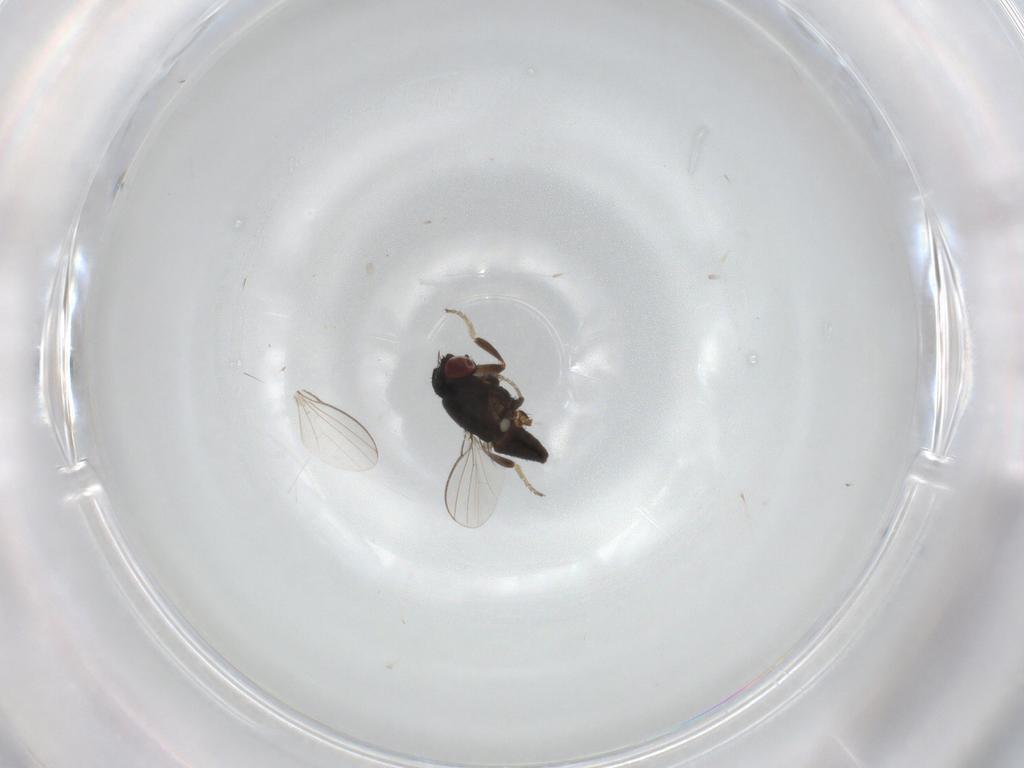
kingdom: Animalia
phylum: Arthropoda
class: Insecta
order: Diptera
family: Milichiidae
